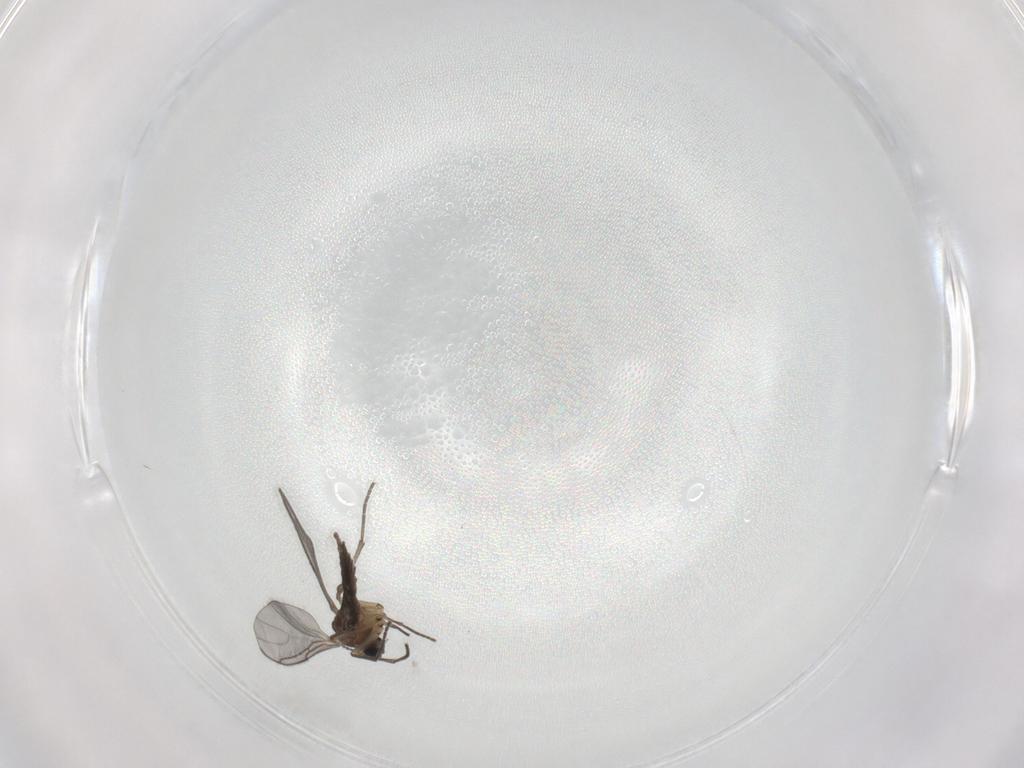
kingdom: Animalia
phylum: Arthropoda
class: Insecta
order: Diptera
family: Sciaridae
